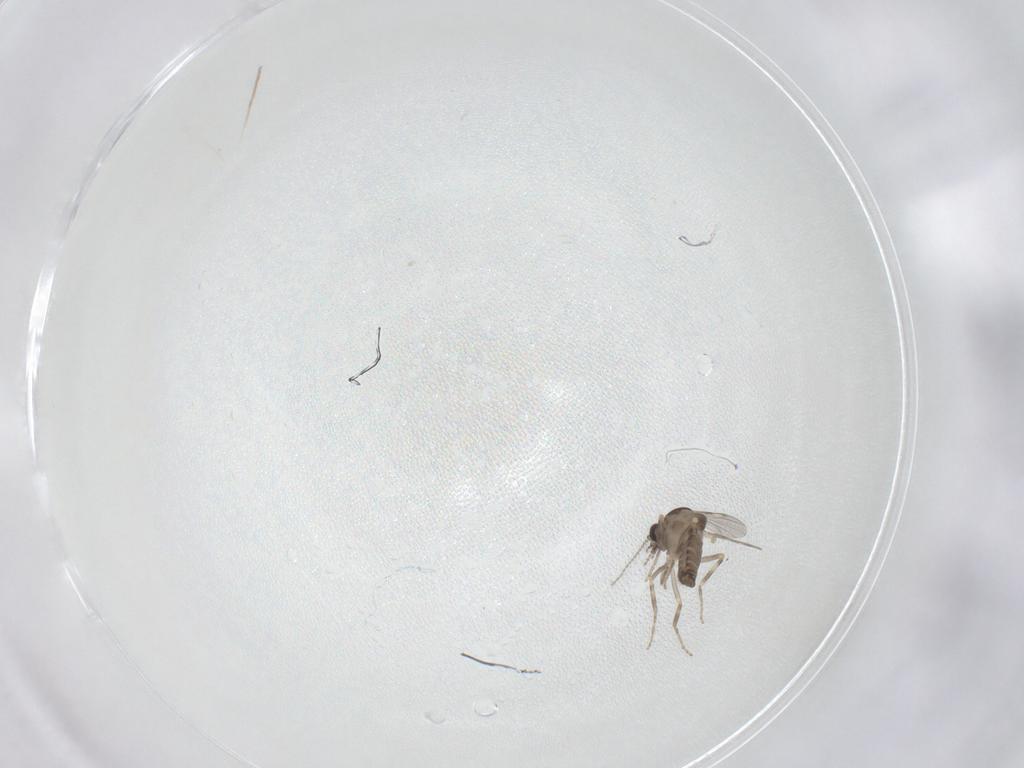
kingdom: Animalia
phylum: Arthropoda
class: Insecta
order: Diptera
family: Ceratopogonidae
